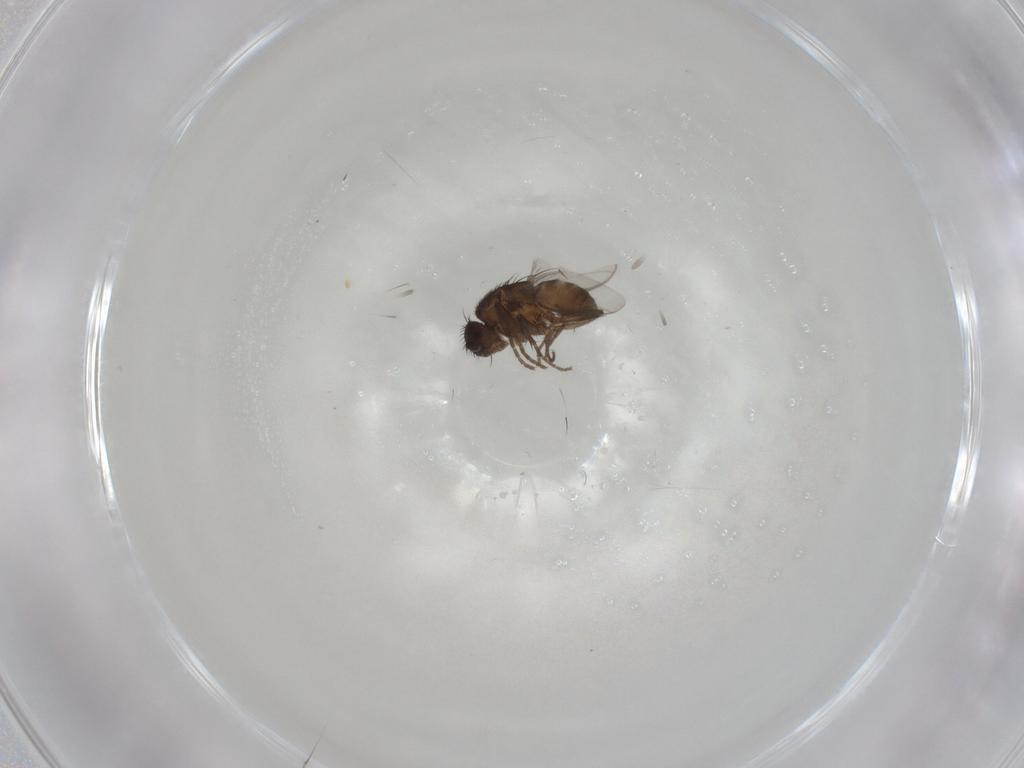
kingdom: Animalia
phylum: Arthropoda
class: Insecta
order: Diptera
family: Sphaeroceridae
